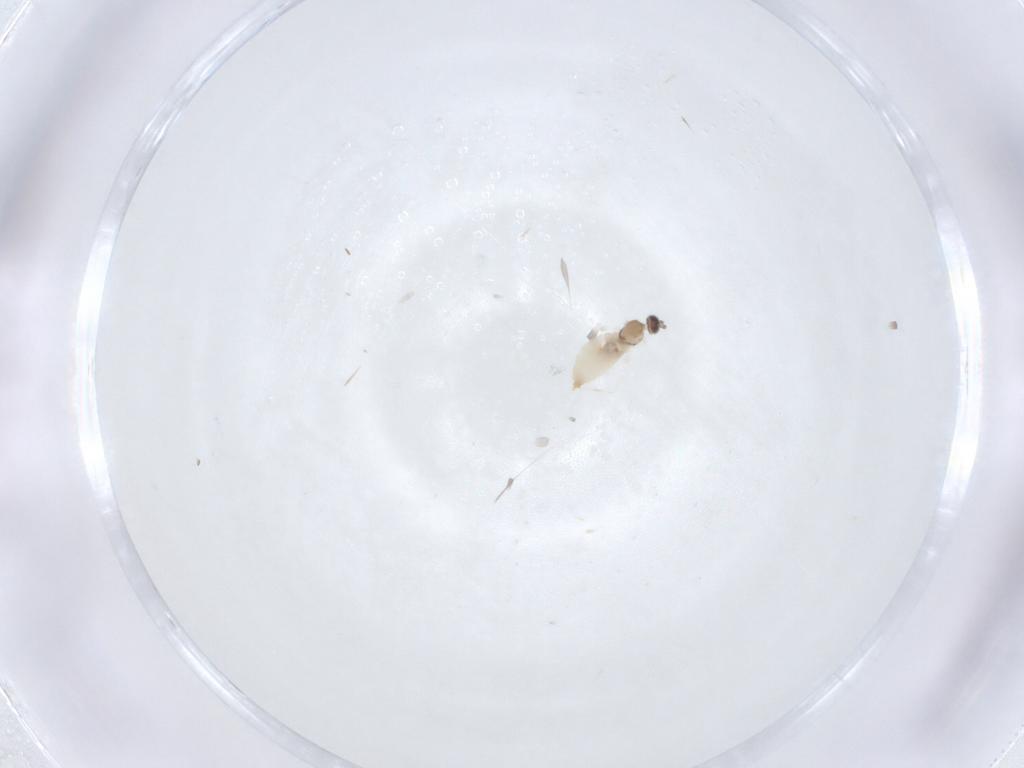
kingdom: Animalia
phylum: Arthropoda
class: Insecta
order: Diptera
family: Cecidomyiidae
